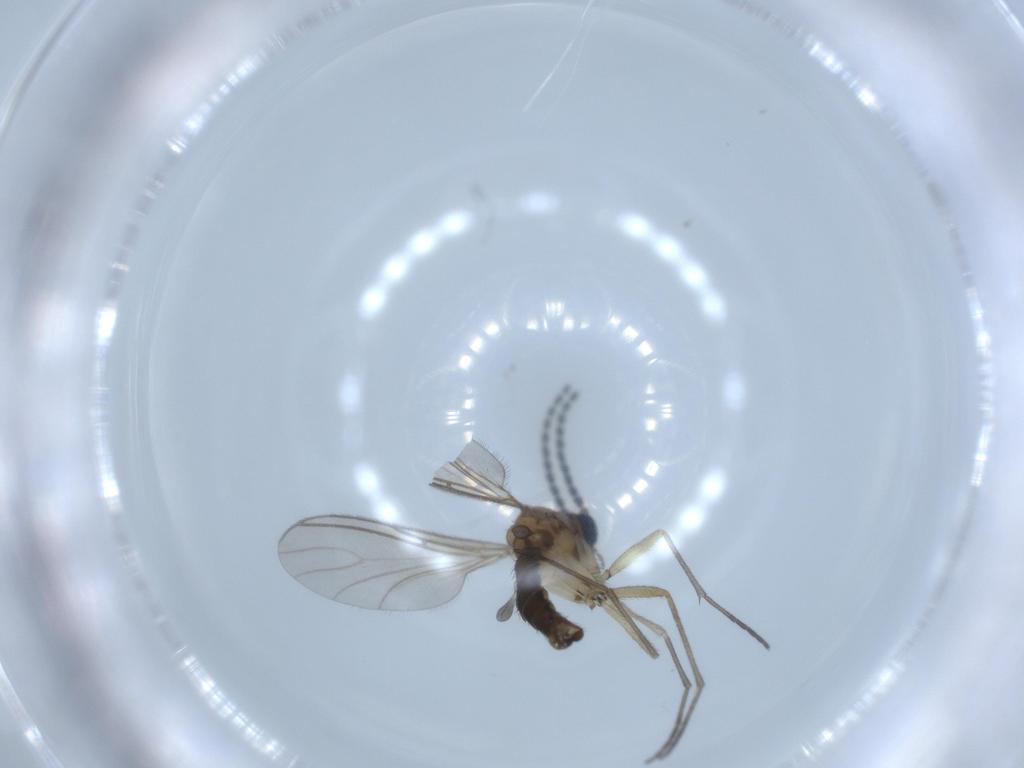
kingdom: Animalia
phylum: Arthropoda
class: Insecta
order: Diptera
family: Sciaridae
